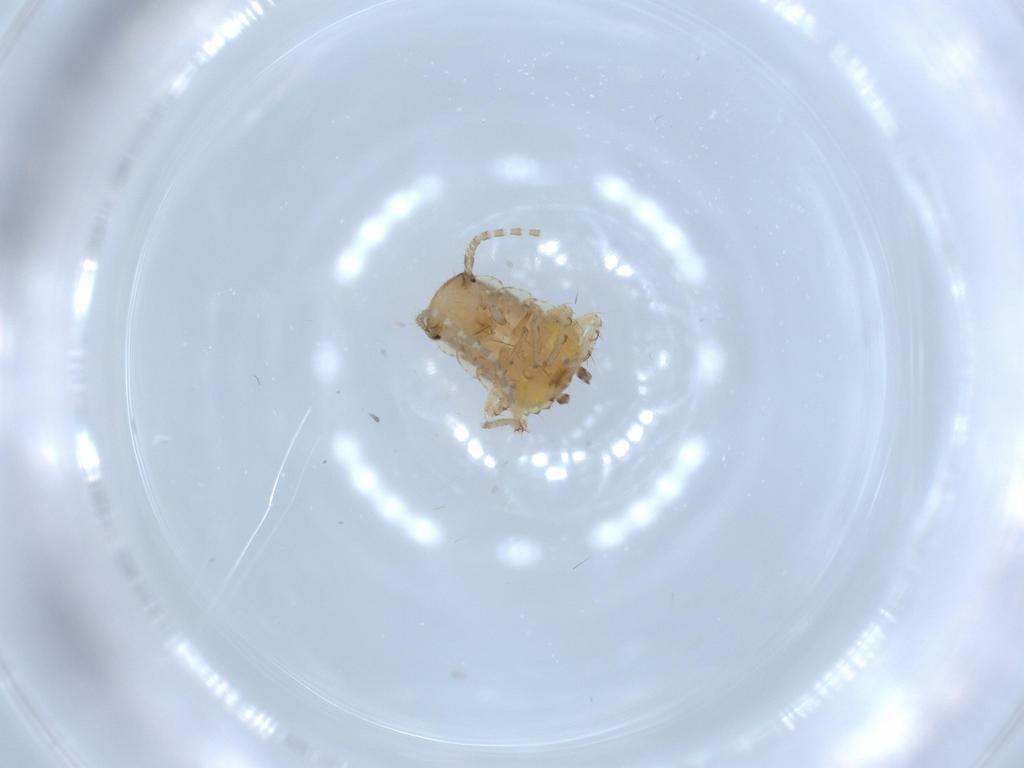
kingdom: Animalia
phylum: Arthropoda
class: Insecta
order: Blattodea
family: Ectobiidae
